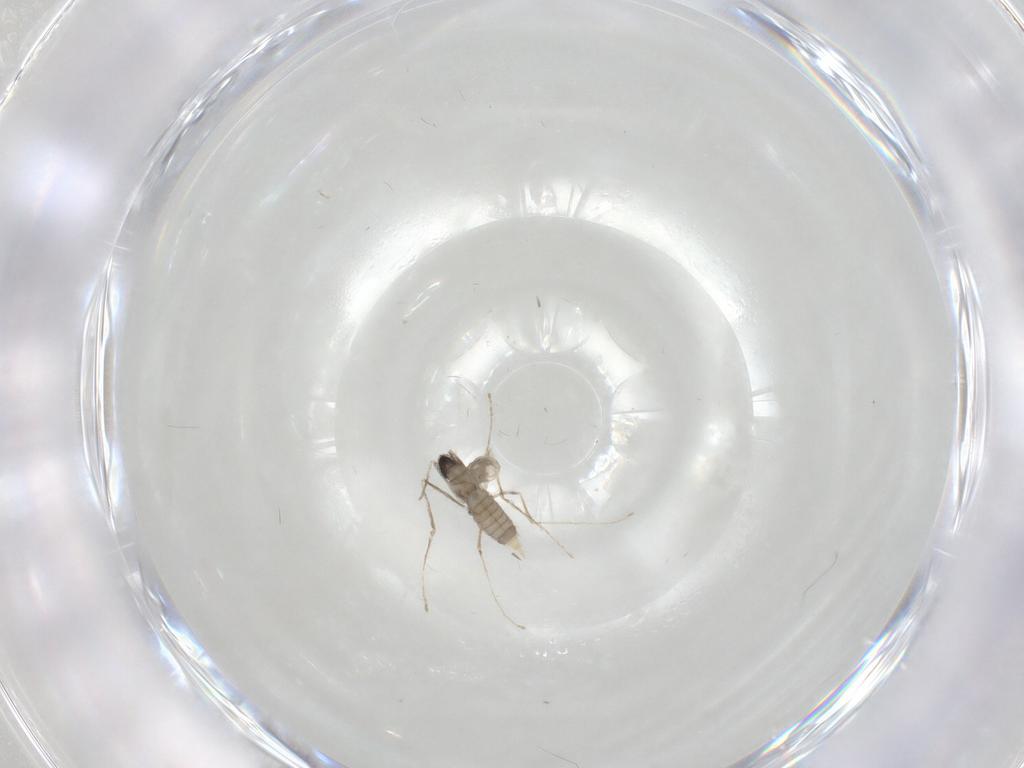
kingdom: Animalia
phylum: Arthropoda
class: Insecta
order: Diptera
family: Cecidomyiidae
